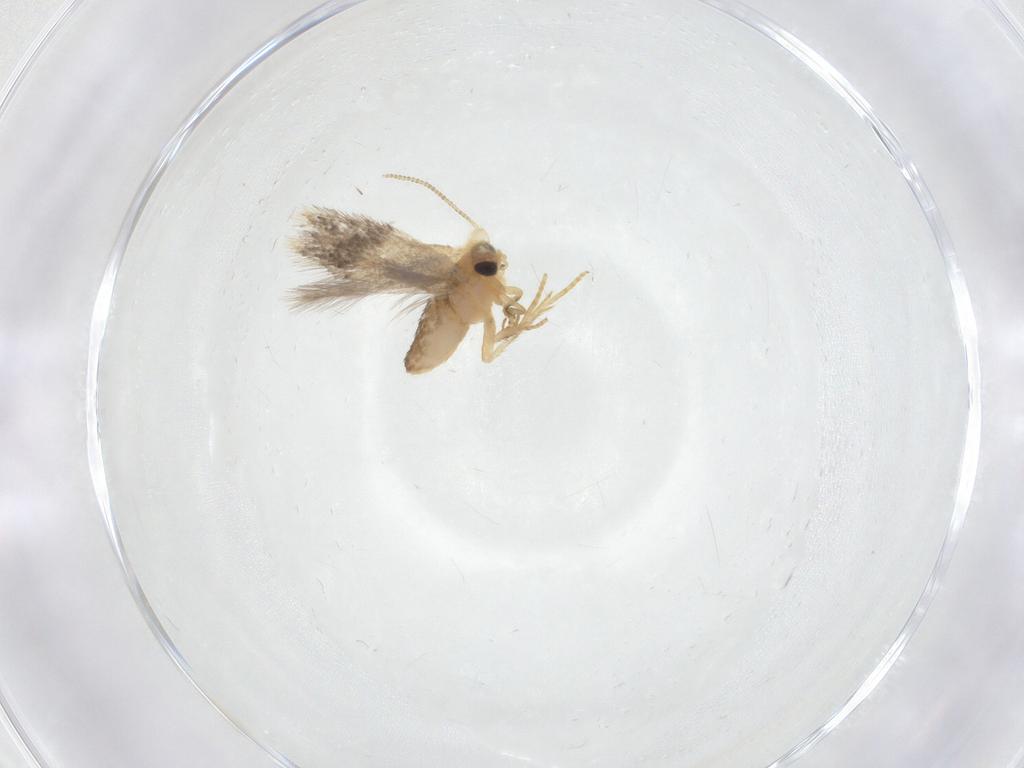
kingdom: Animalia
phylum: Arthropoda
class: Insecta
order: Lepidoptera
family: Nepticulidae
